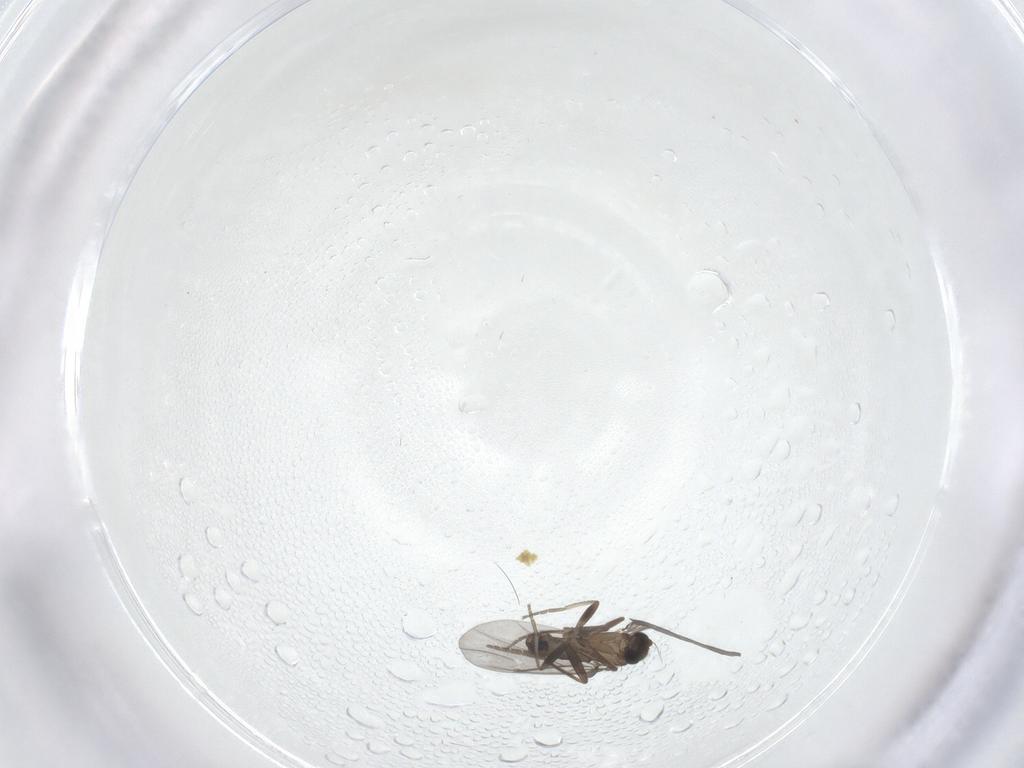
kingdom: Animalia
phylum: Arthropoda
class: Insecta
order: Diptera
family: Phoridae
